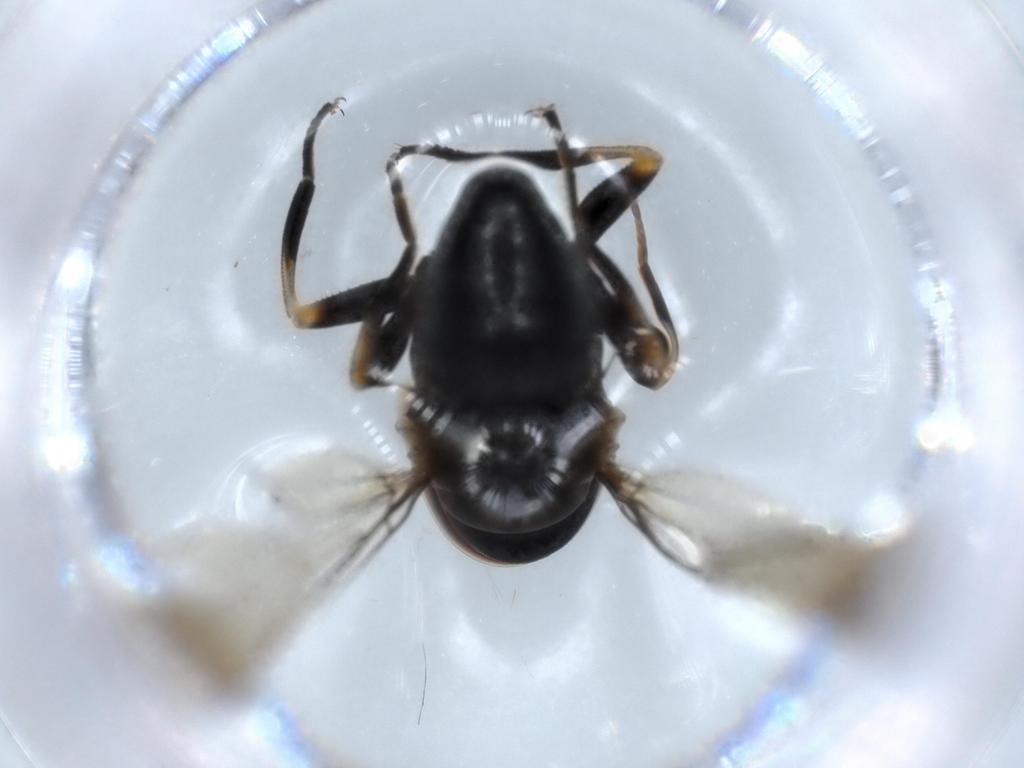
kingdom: Animalia
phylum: Arthropoda
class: Insecta
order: Diptera
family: Pipunculidae
